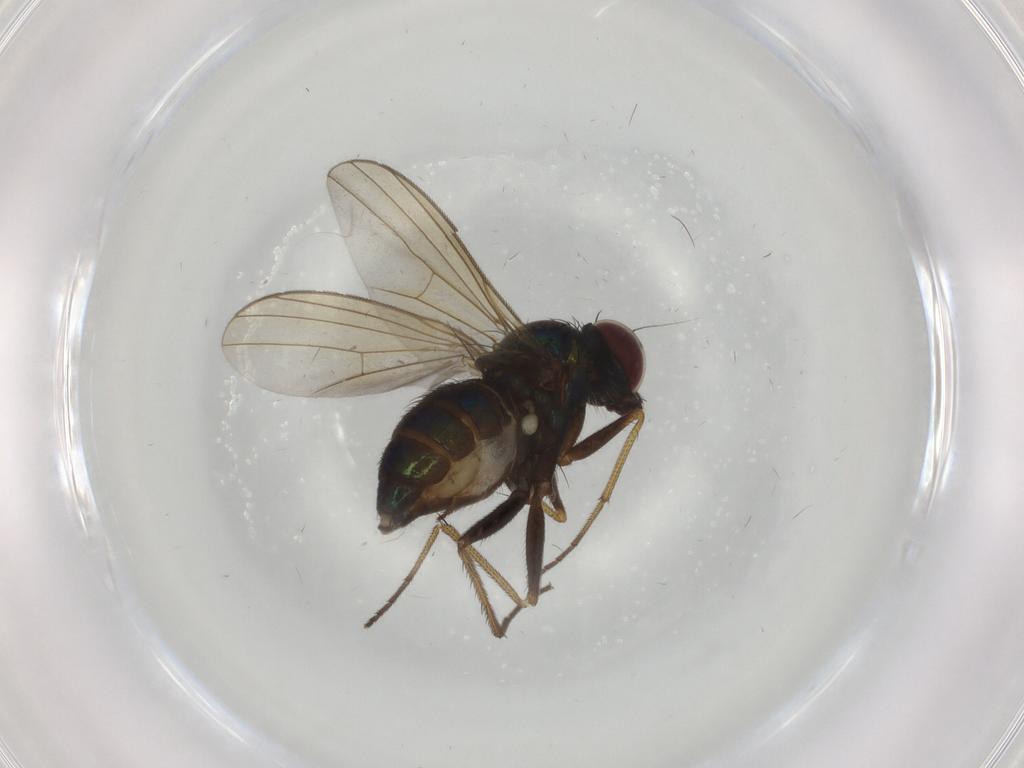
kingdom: Animalia
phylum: Arthropoda
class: Insecta
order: Diptera
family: Dolichopodidae
